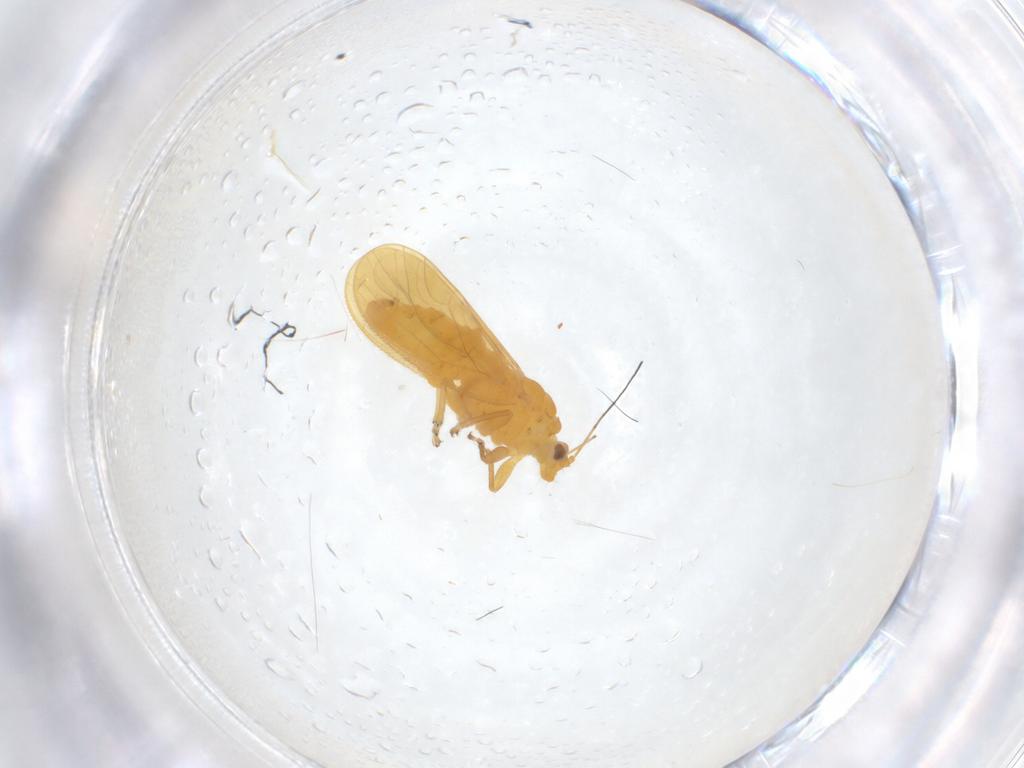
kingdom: Animalia
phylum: Arthropoda
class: Insecta
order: Hemiptera
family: Psyllidae
